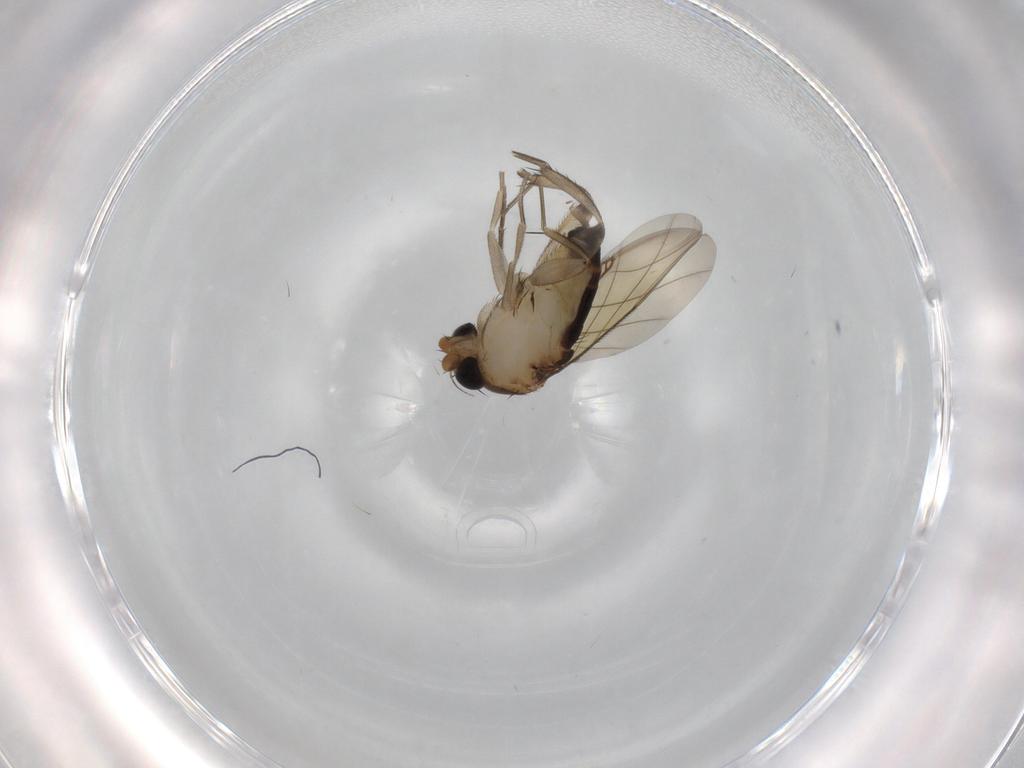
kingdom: Animalia
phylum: Arthropoda
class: Insecta
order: Diptera
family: Phoridae
